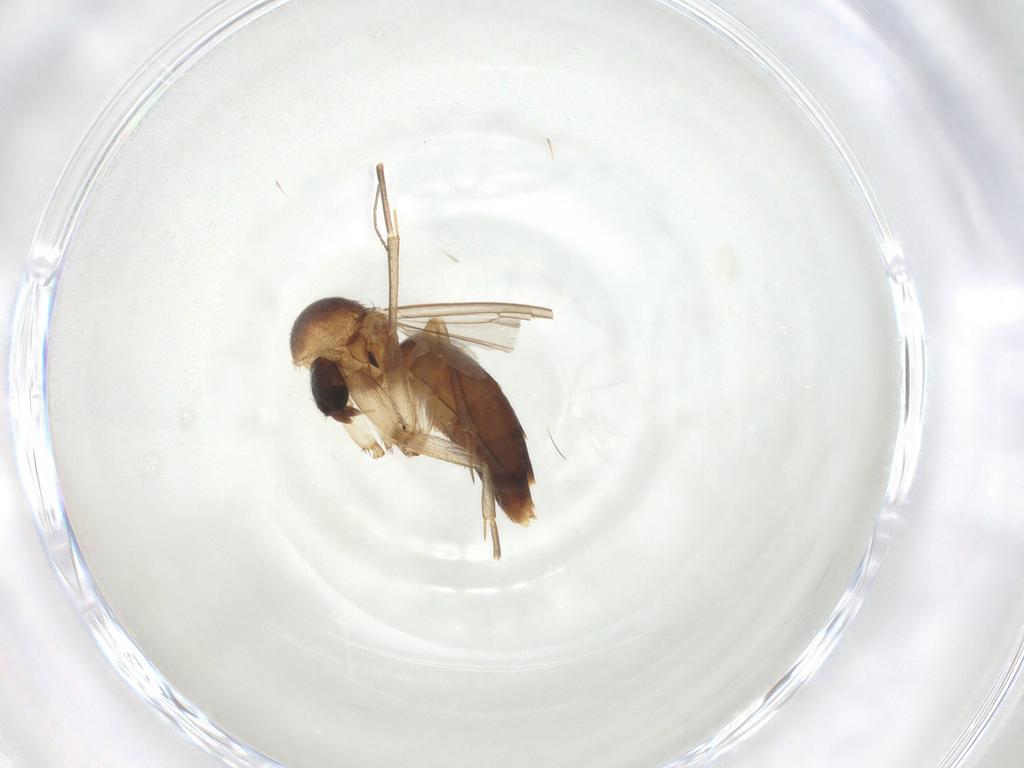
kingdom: Animalia
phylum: Arthropoda
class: Insecta
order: Diptera
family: Mycetophilidae
